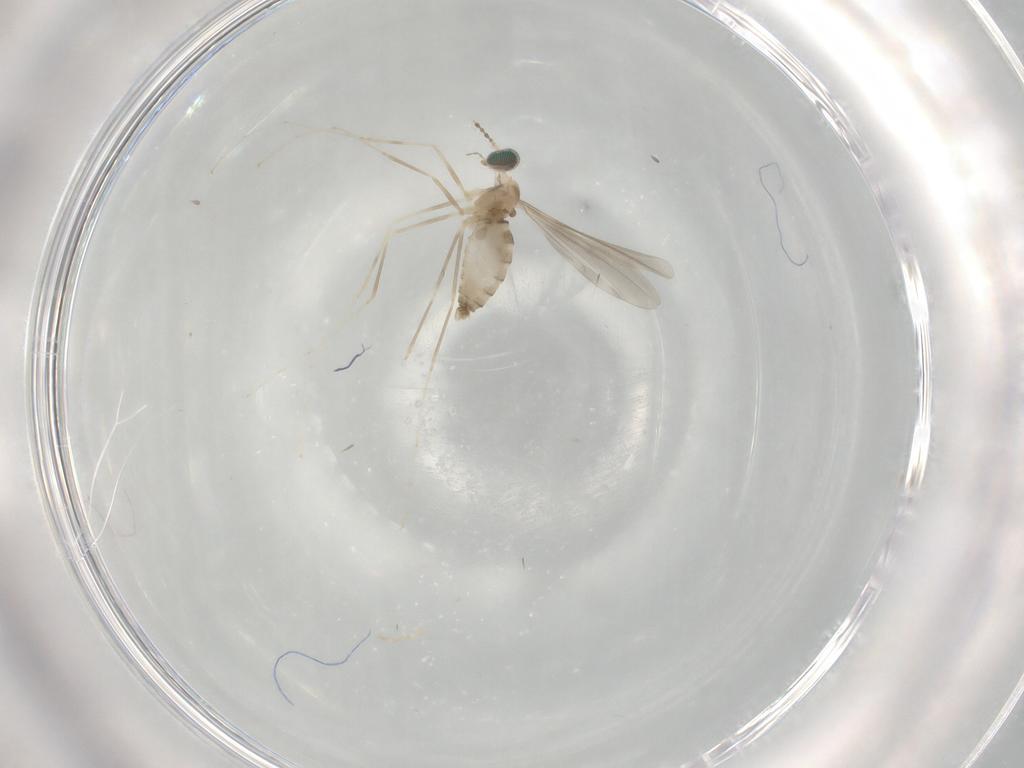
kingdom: Animalia
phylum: Arthropoda
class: Insecta
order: Diptera
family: Cecidomyiidae
